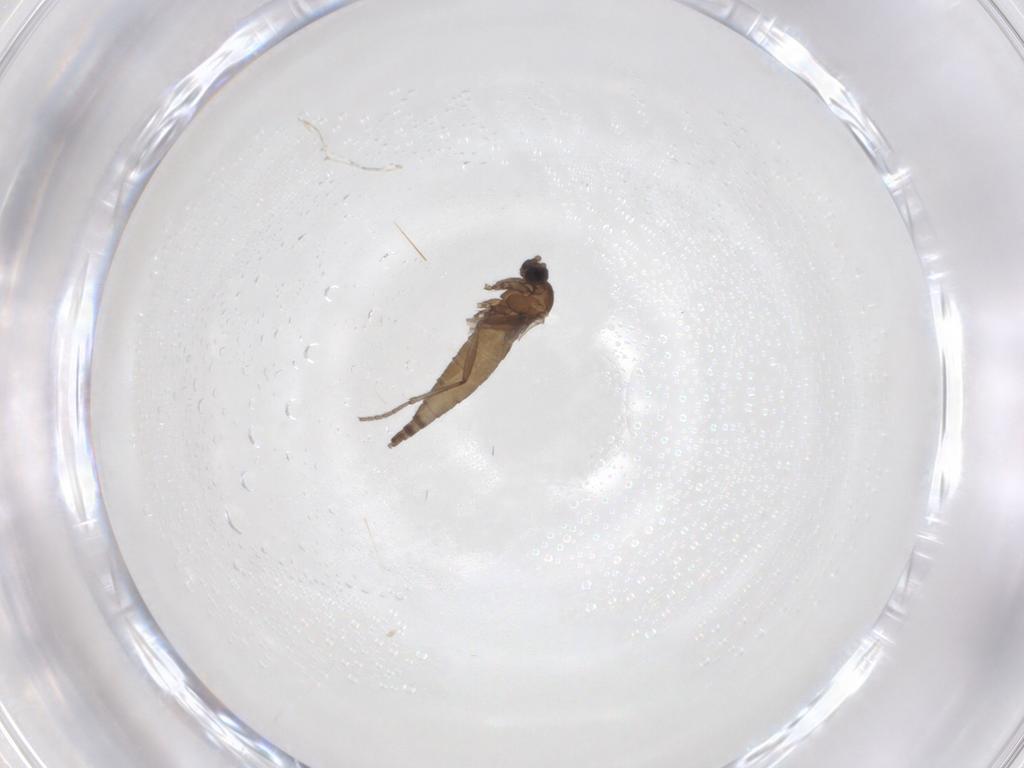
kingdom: Animalia
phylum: Arthropoda
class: Insecta
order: Diptera
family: Sciaridae
